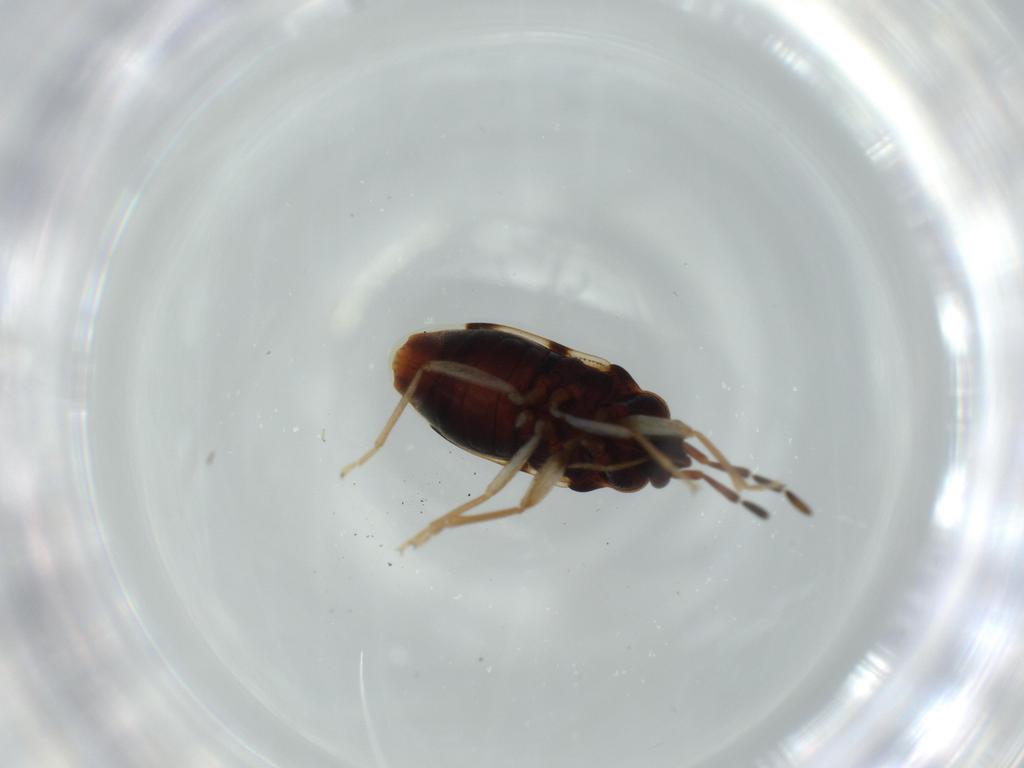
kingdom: Animalia
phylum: Arthropoda
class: Insecta
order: Hemiptera
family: Rhyparochromidae
